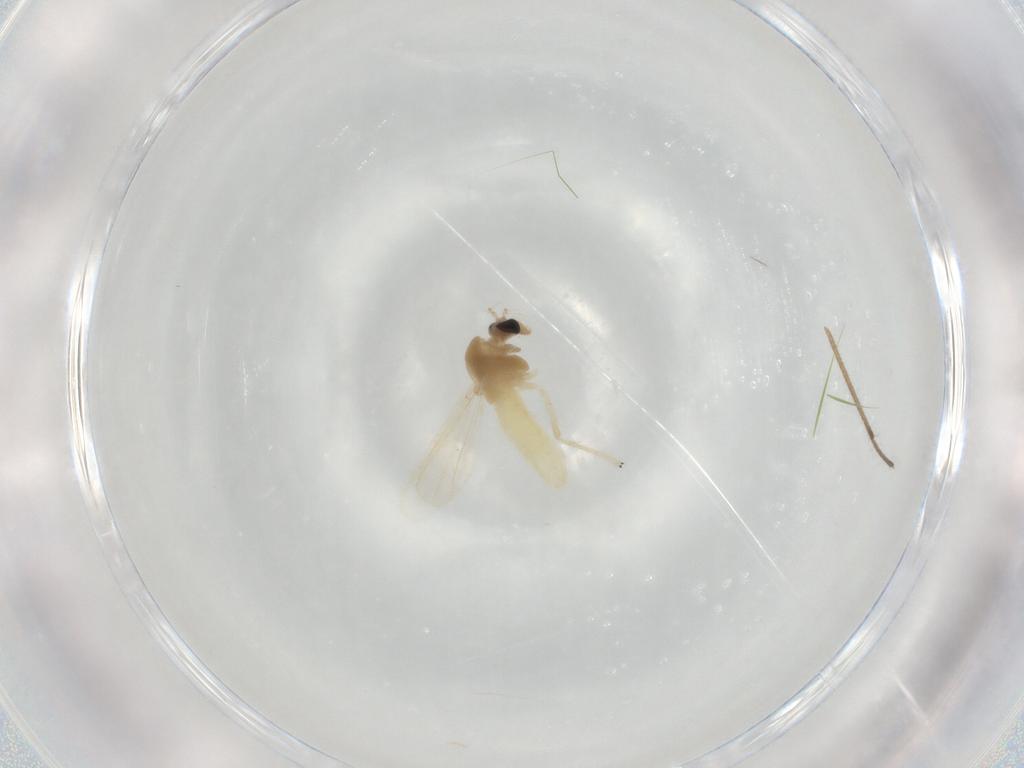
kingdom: Animalia
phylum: Arthropoda
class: Insecta
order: Diptera
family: Chironomidae
